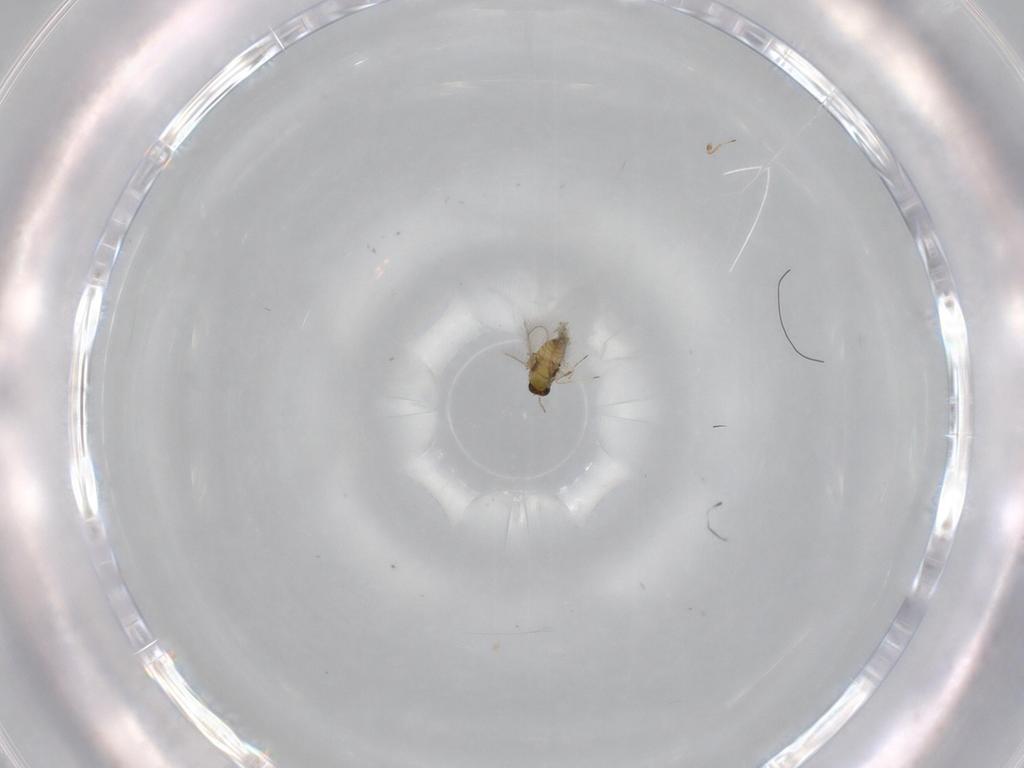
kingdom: Animalia
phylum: Arthropoda
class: Insecta
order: Hymenoptera
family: Trichogrammatidae
